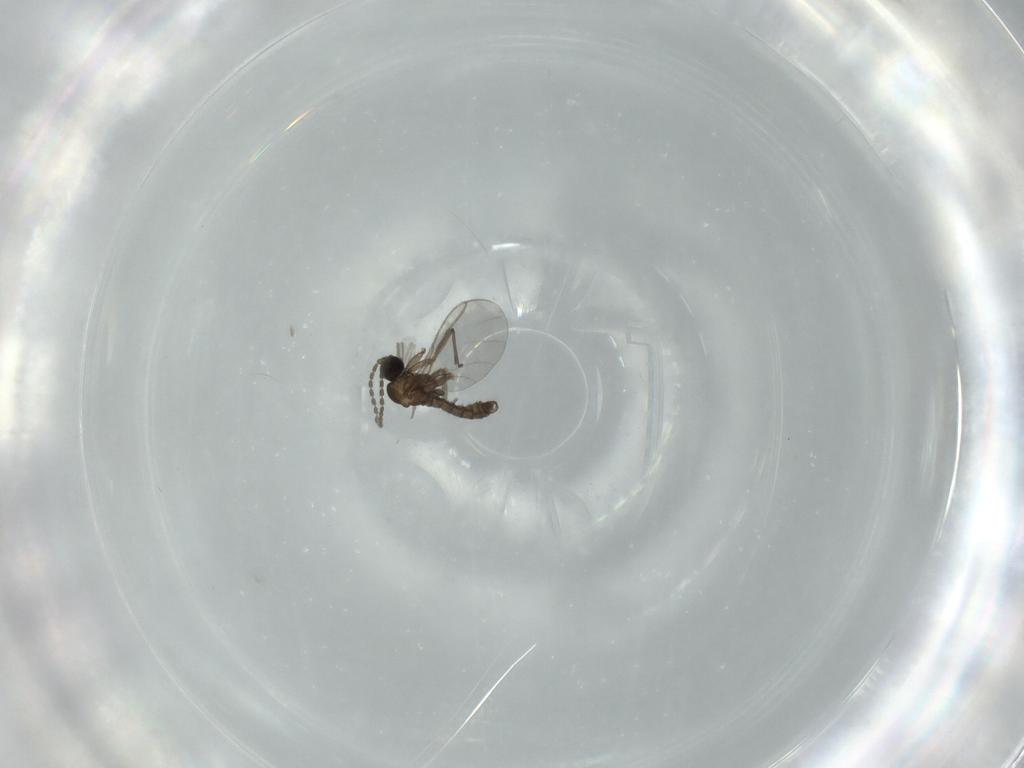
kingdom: Animalia
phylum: Arthropoda
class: Insecta
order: Diptera
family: Sciaridae
